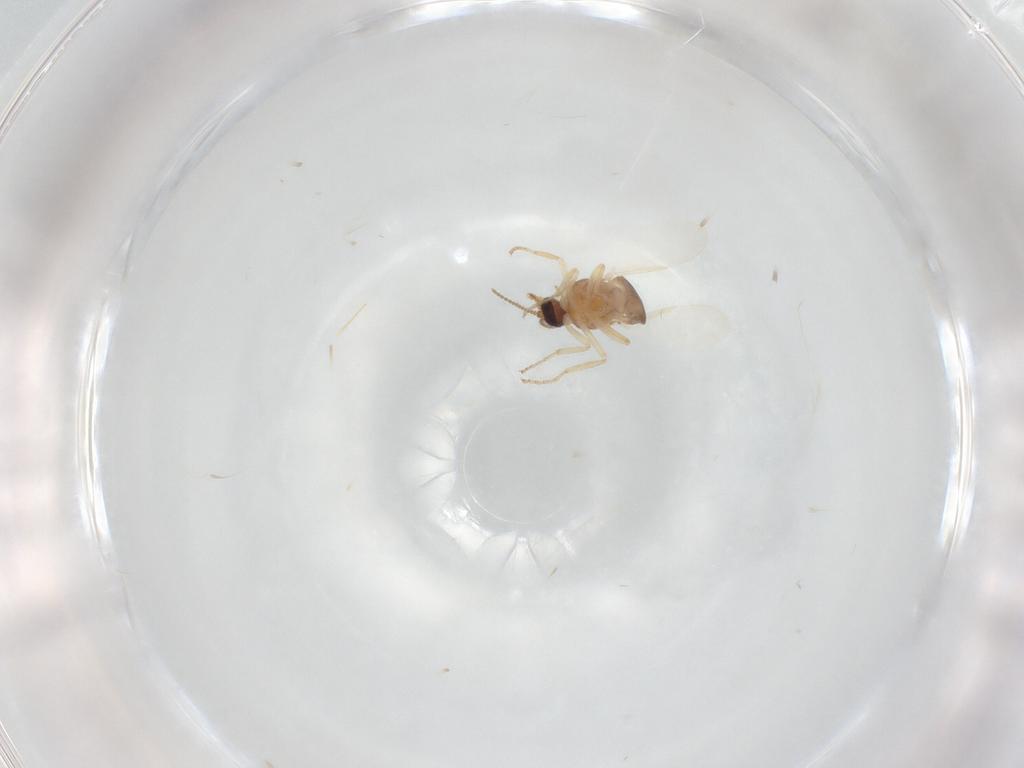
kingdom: Animalia
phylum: Arthropoda
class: Insecta
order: Diptera
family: Ceratopogonidae
